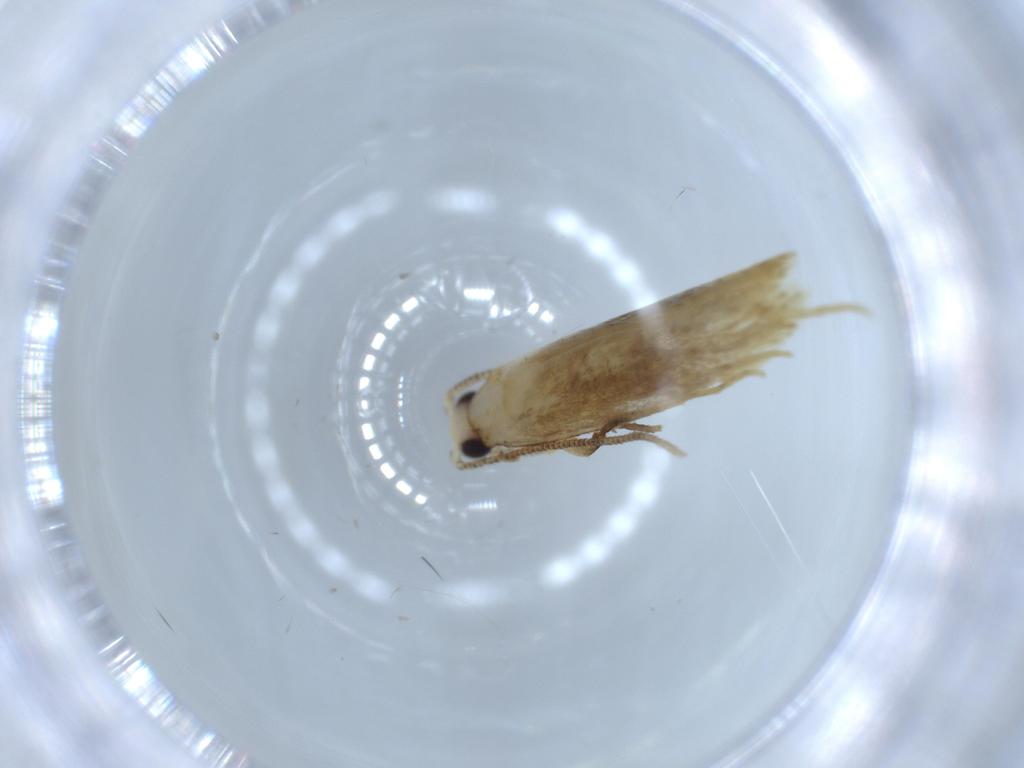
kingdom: Animalia
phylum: Arthropoda
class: Insecta
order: Lepidoptera
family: Tineidae
